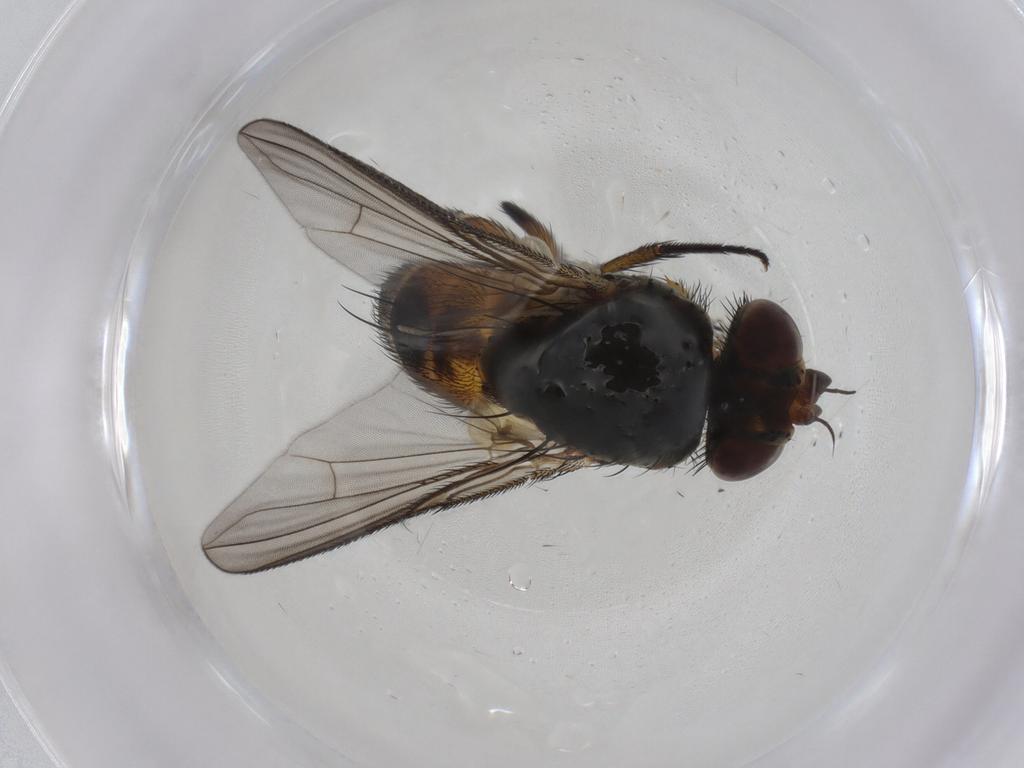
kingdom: Animalia
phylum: Arthropoda
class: Insecta
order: Diptera
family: Tachinidae
